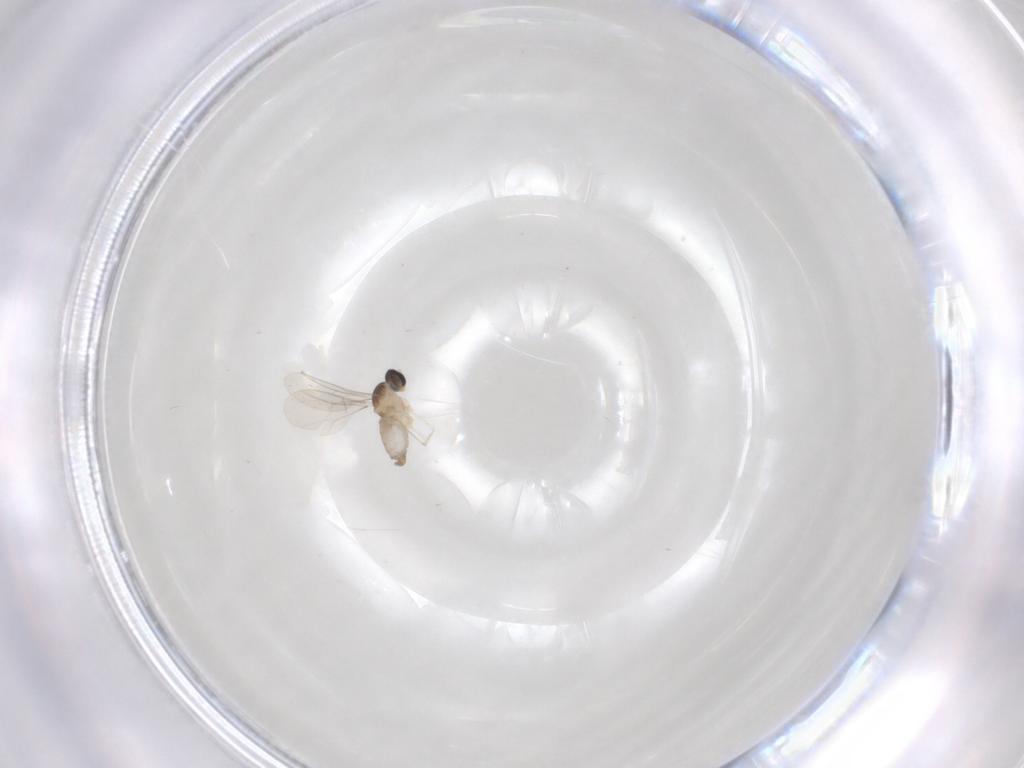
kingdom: Animalia
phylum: Arthropoda
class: Insecta
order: Diptera
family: Cecidomyiidae
